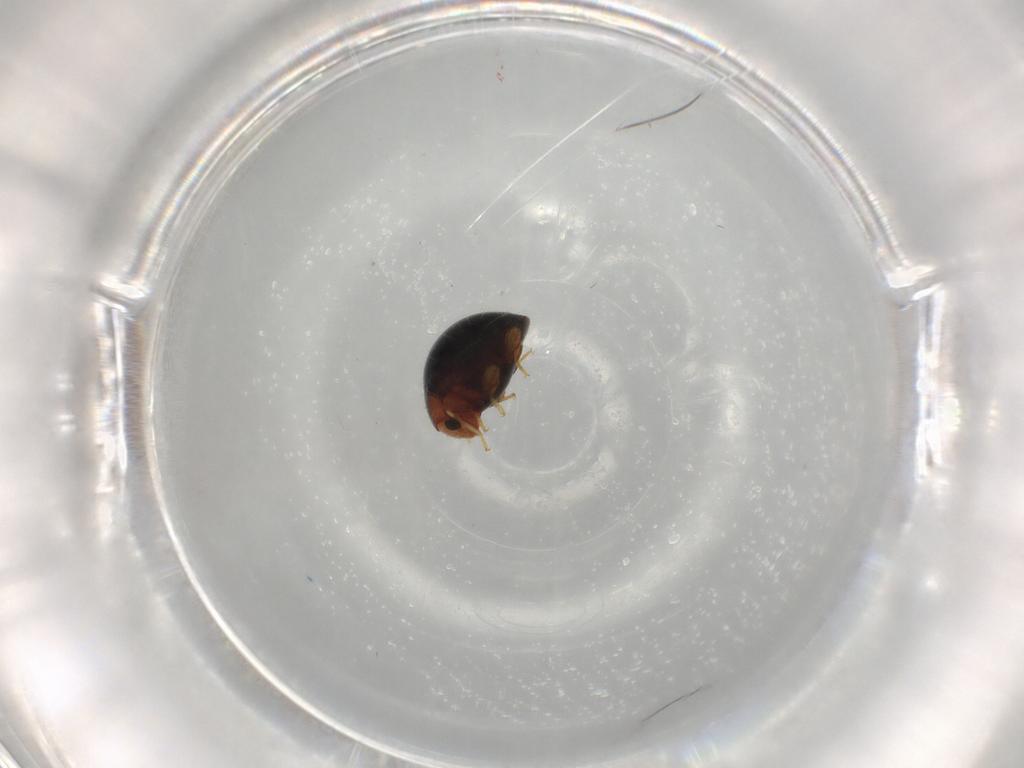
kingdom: Animalia
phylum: Arthropoda
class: Insecta
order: Coleoptera
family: Coccinellidae
